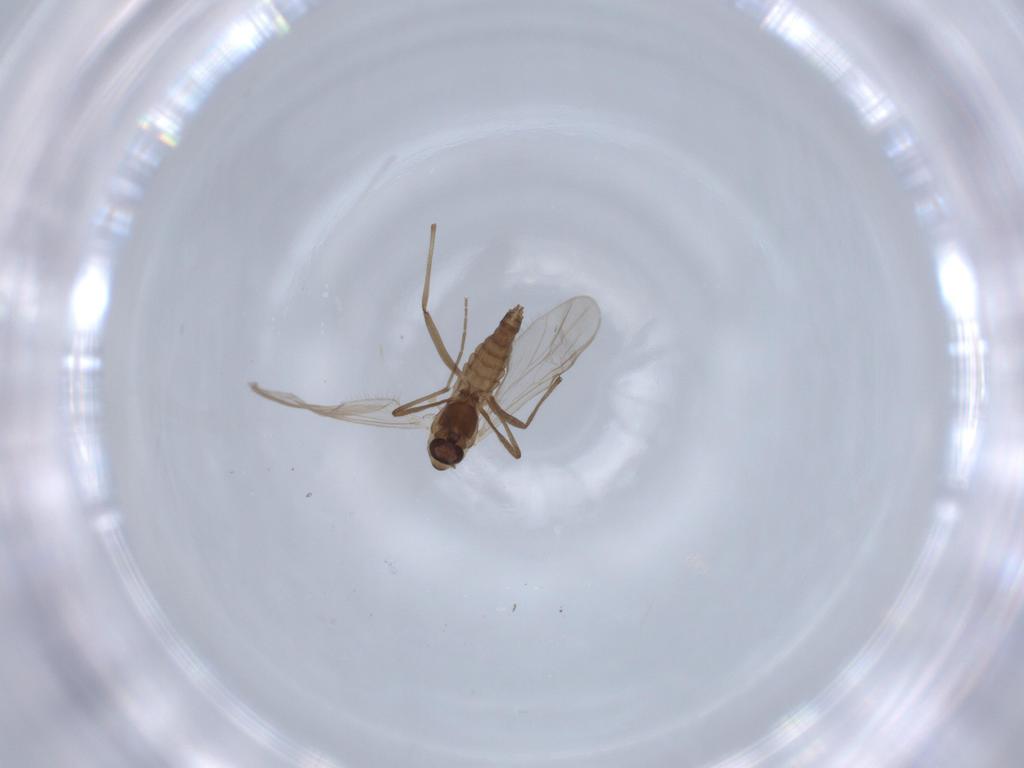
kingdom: Animalia
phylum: Arthropoda
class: Insecta
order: Diptera
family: Chironomidae
